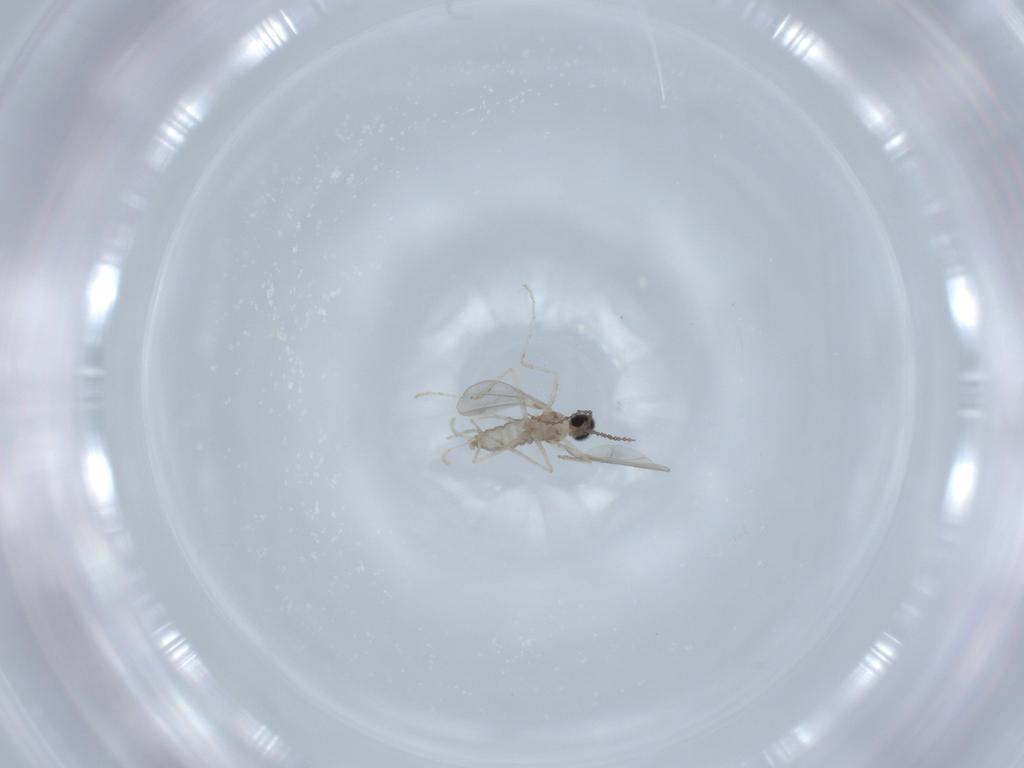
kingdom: Animalia
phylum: Arthropoda
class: Insecta
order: Diptera
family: Cecidomyiidae
